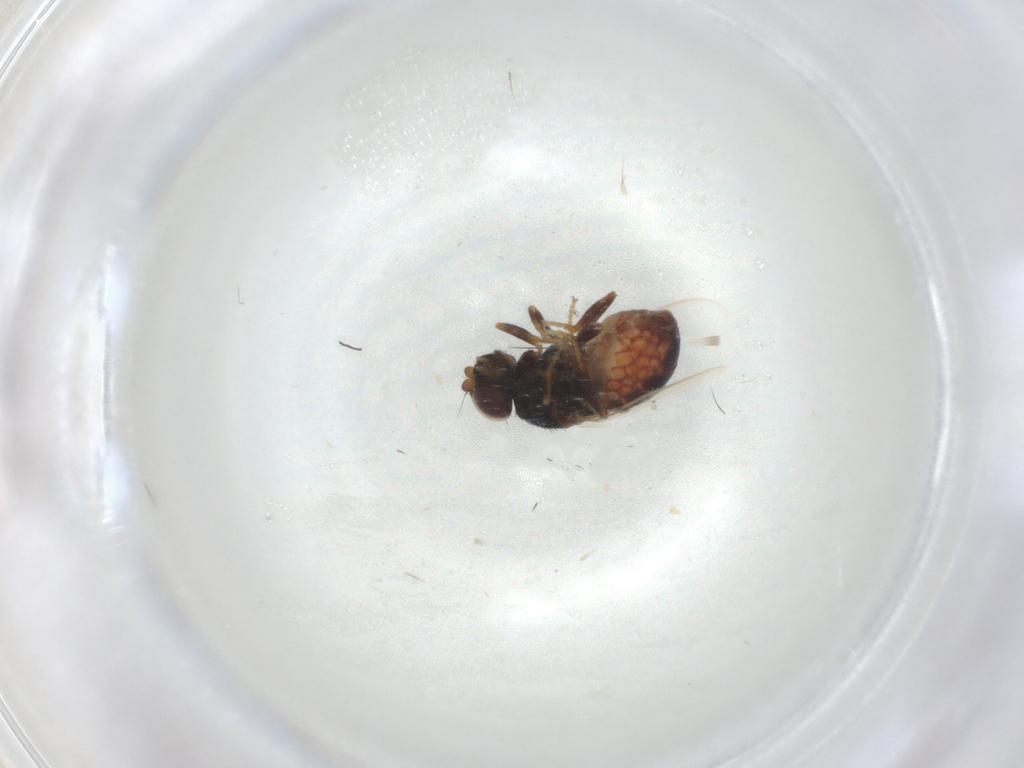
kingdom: Animalia
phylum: Arthropoda
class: Insecta
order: Diptera
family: Chloropidae
